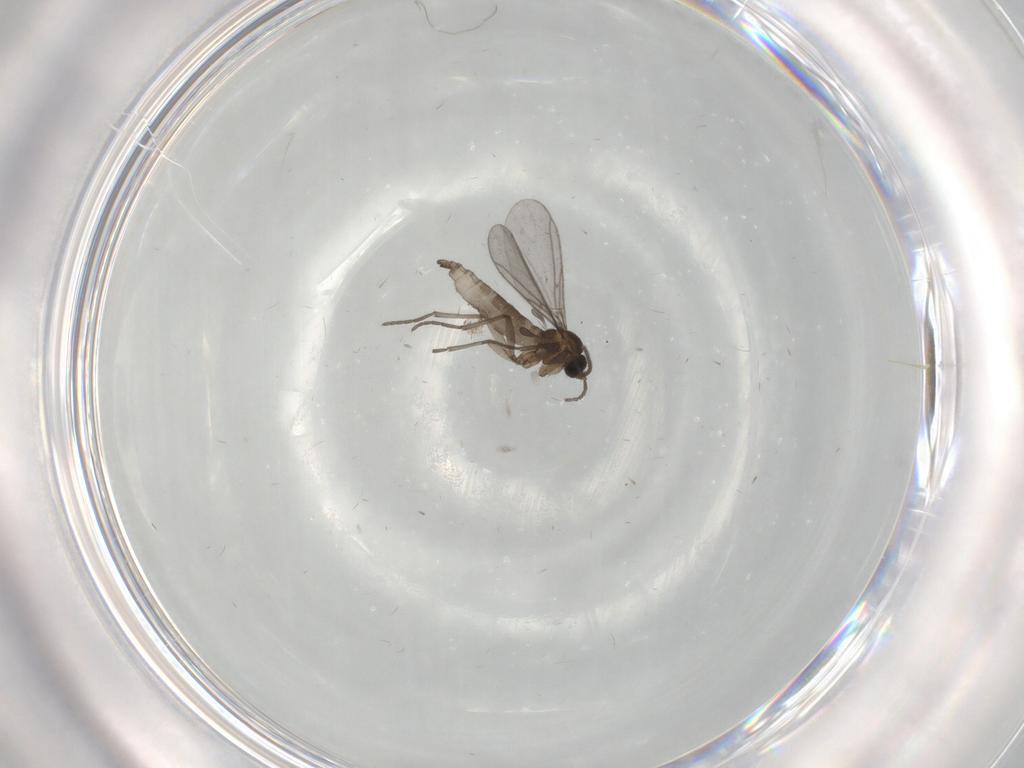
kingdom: Animalia
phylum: Arthropoda
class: Insecta
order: Diptera
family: Sciaridae
